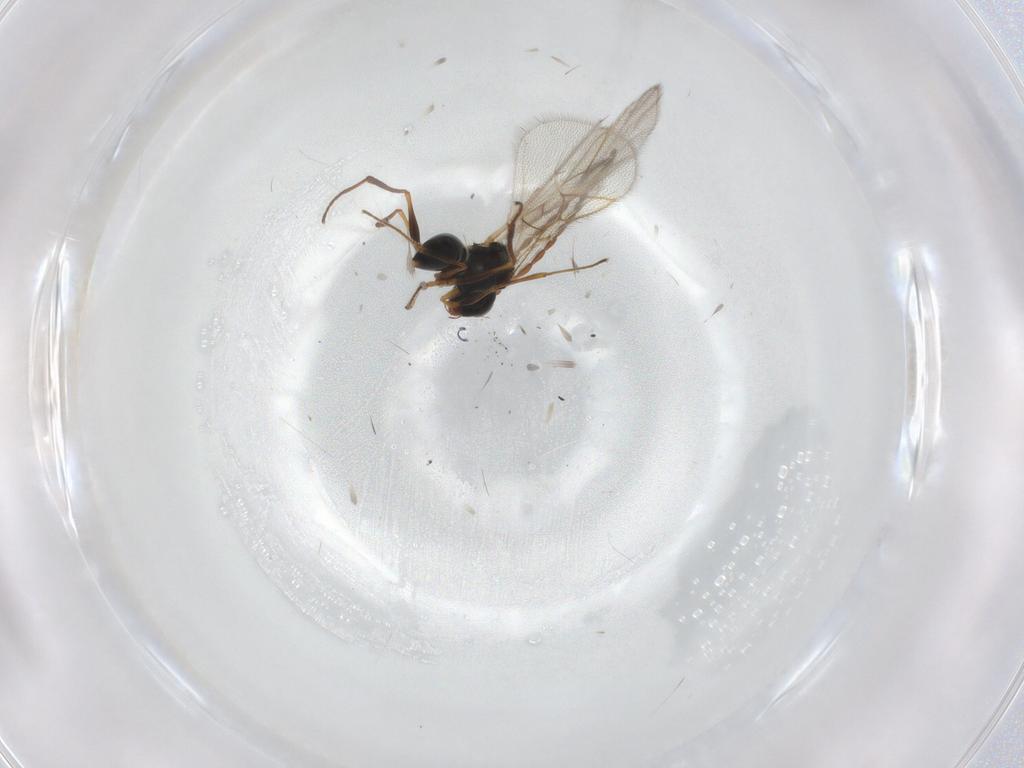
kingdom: Animalia
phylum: Arthropoda
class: Insecta
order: Hymenoptera
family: Figitidae
